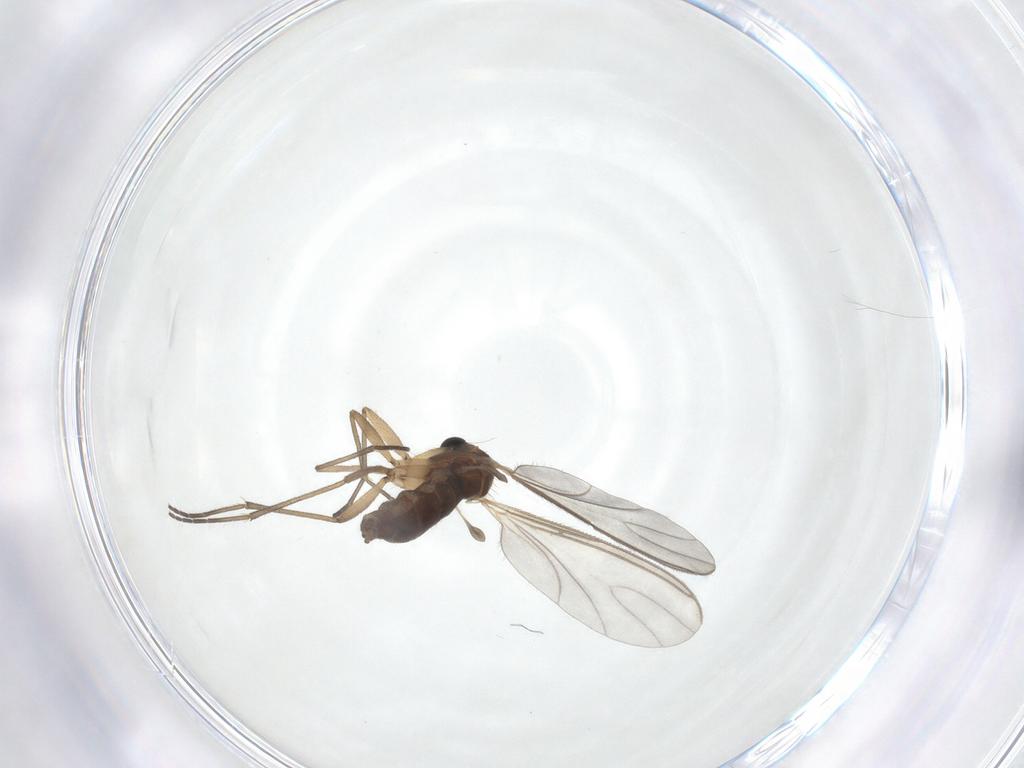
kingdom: Animalia
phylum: Arthropoda
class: Insecta
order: Diptera
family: Sciaridae
